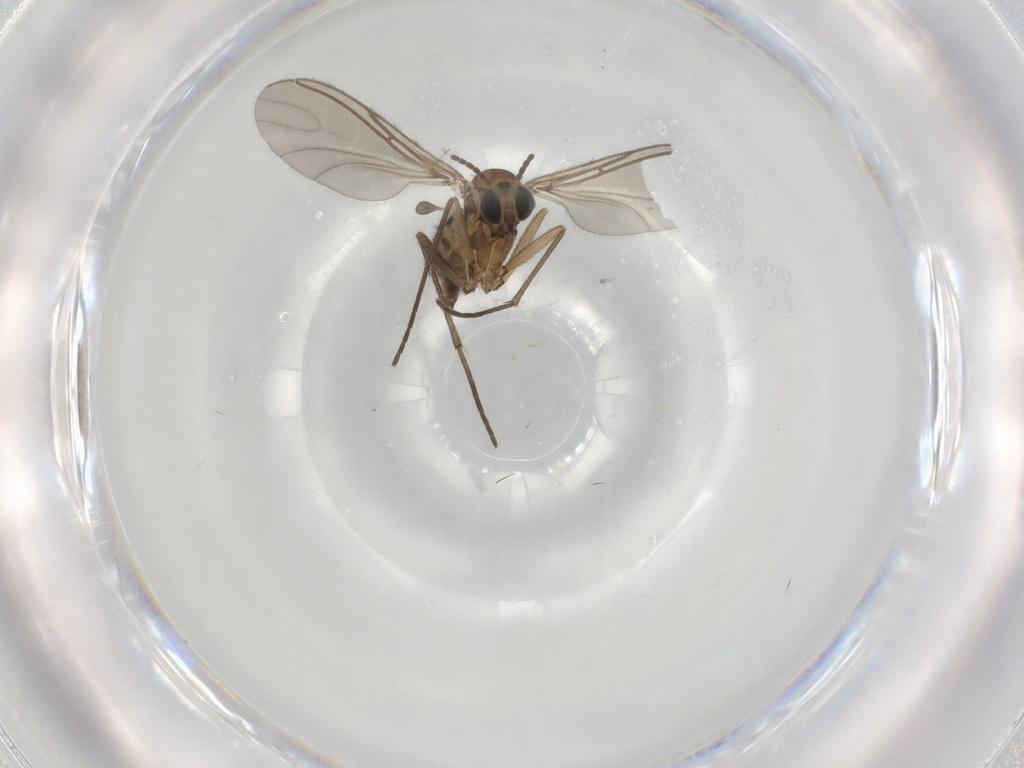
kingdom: Animalia
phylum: Arthropoda
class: Insecta
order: Diptera
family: Sciaridae
